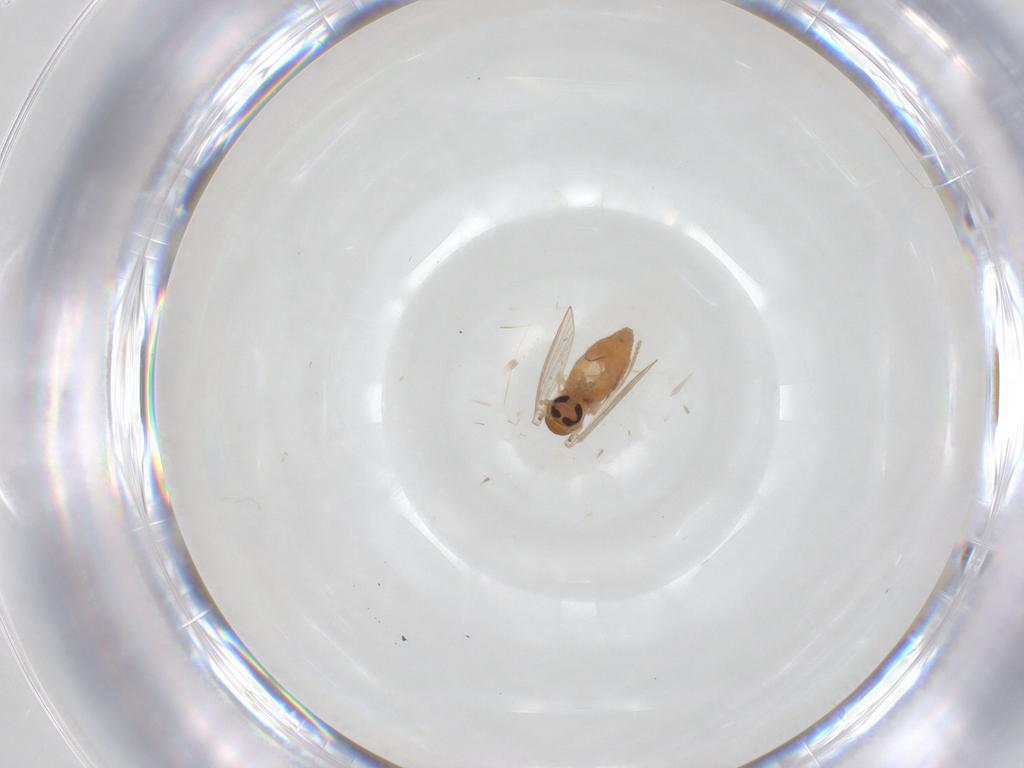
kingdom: Animalia
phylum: Arthropoda
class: Insecta
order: Diptera
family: Psychodidae
